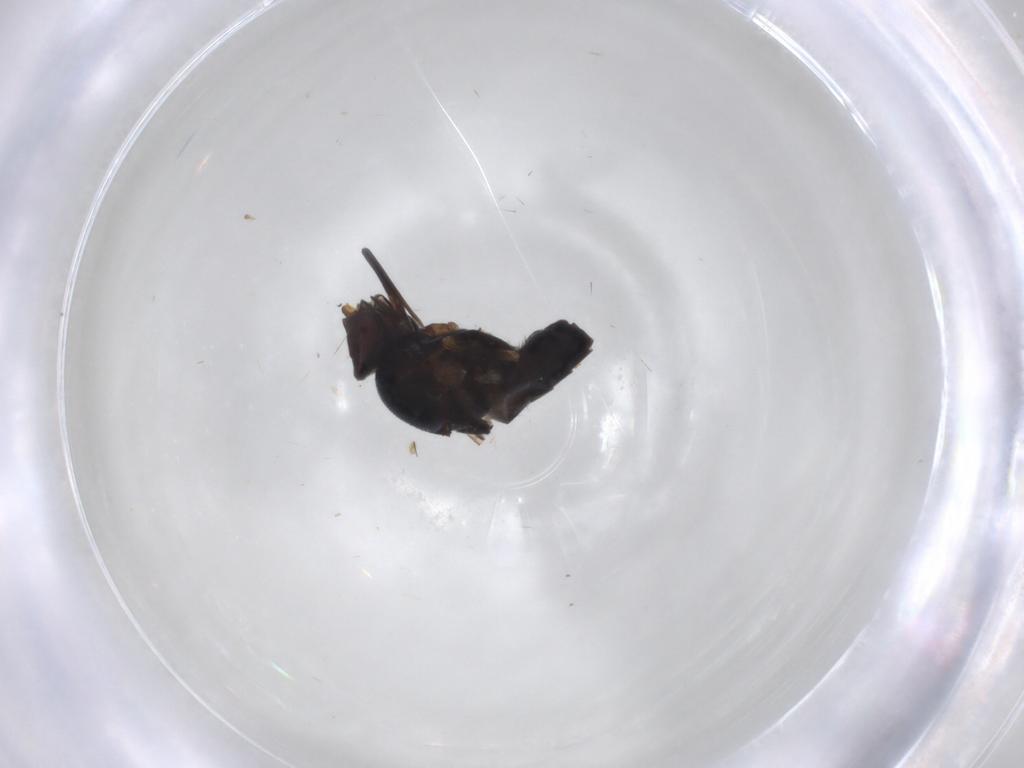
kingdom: Animalia
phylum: Arthropoda
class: Insecta
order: Diptera
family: Chloropidae
